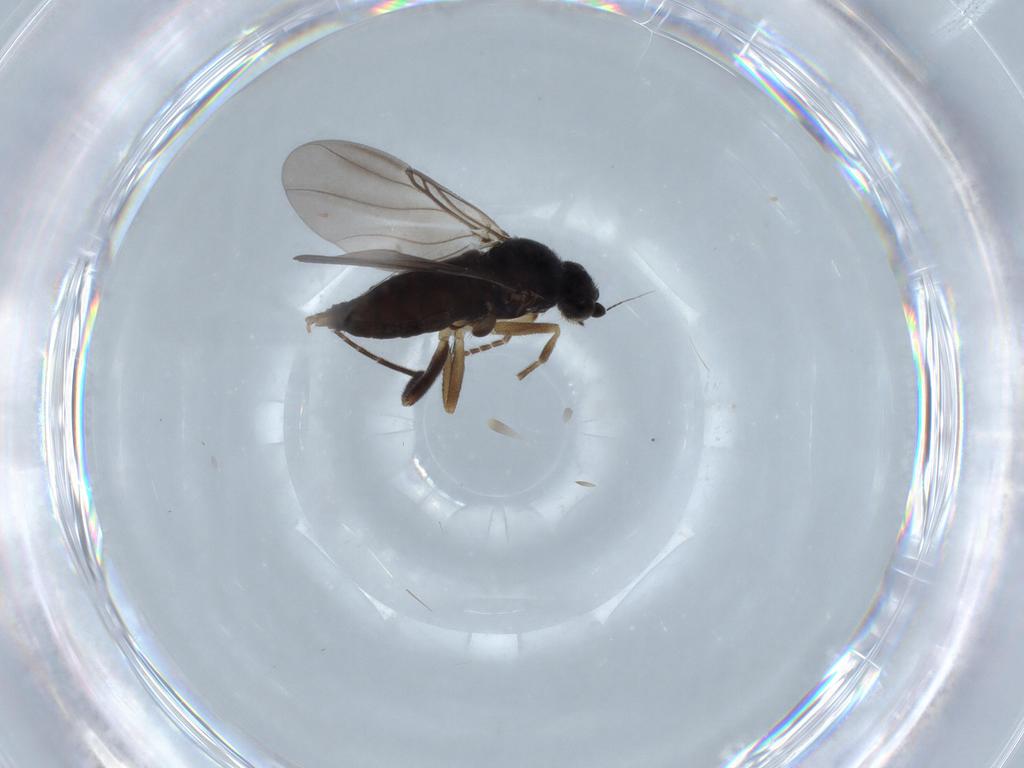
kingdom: Animalia
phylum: Arthropoda
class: Insecta
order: Diptera
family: Phoridae
